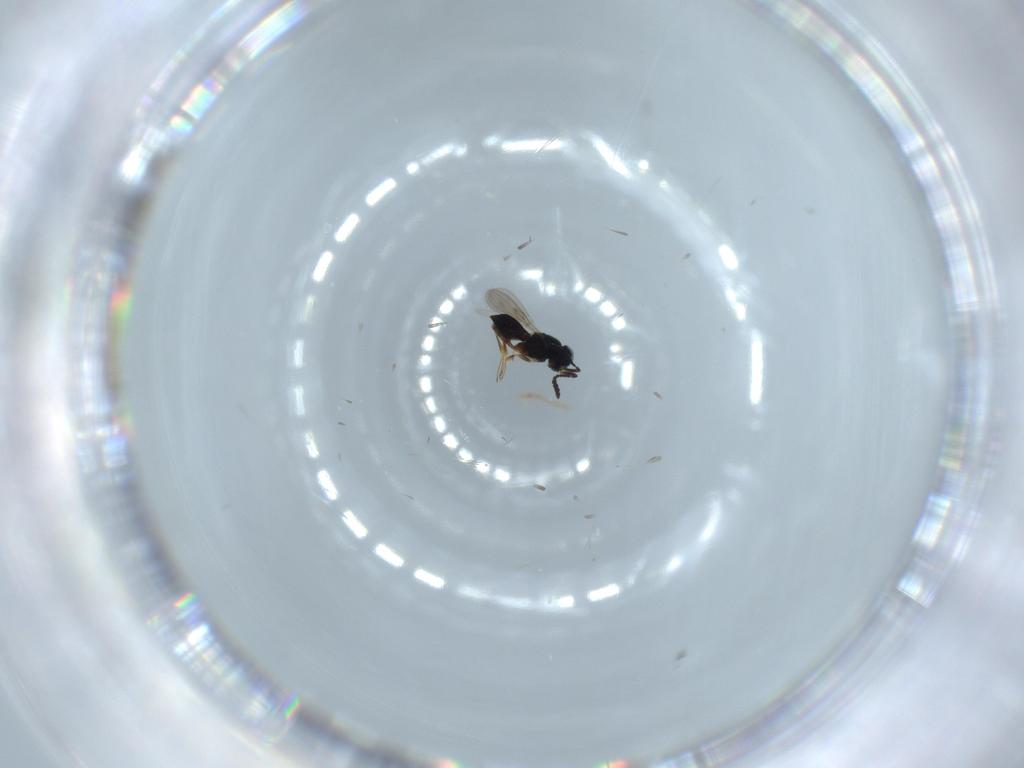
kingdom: Animalia
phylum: Arthropoda
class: Insecta
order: Hymenoptera
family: Scelionidae
